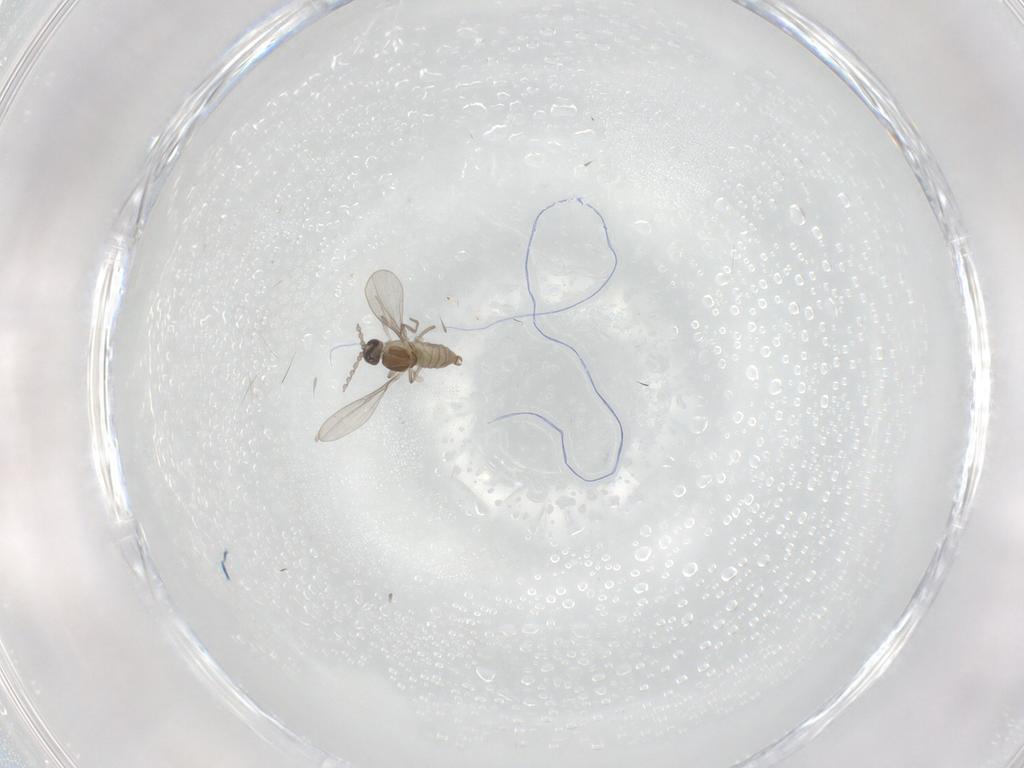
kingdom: Animalia
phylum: Arthropoda
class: Insecta
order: Diptera
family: Cecidomyiidae
